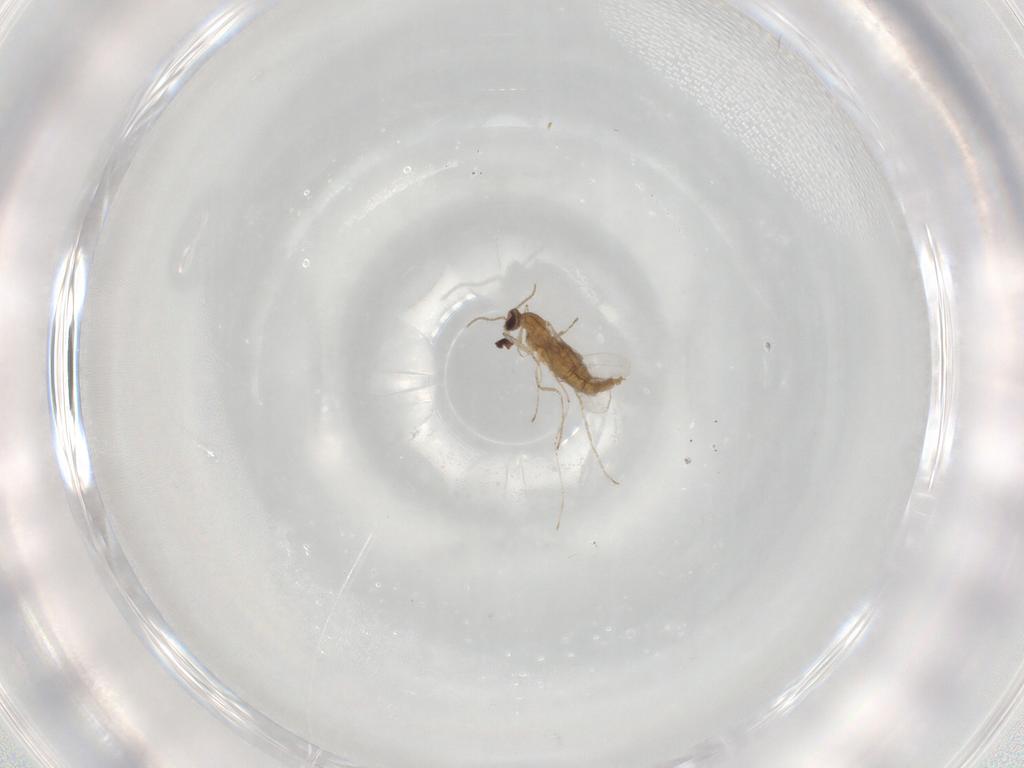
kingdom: Animalia
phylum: Arthropoda
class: Insecta
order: Diptera
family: Cecidomyiidae
